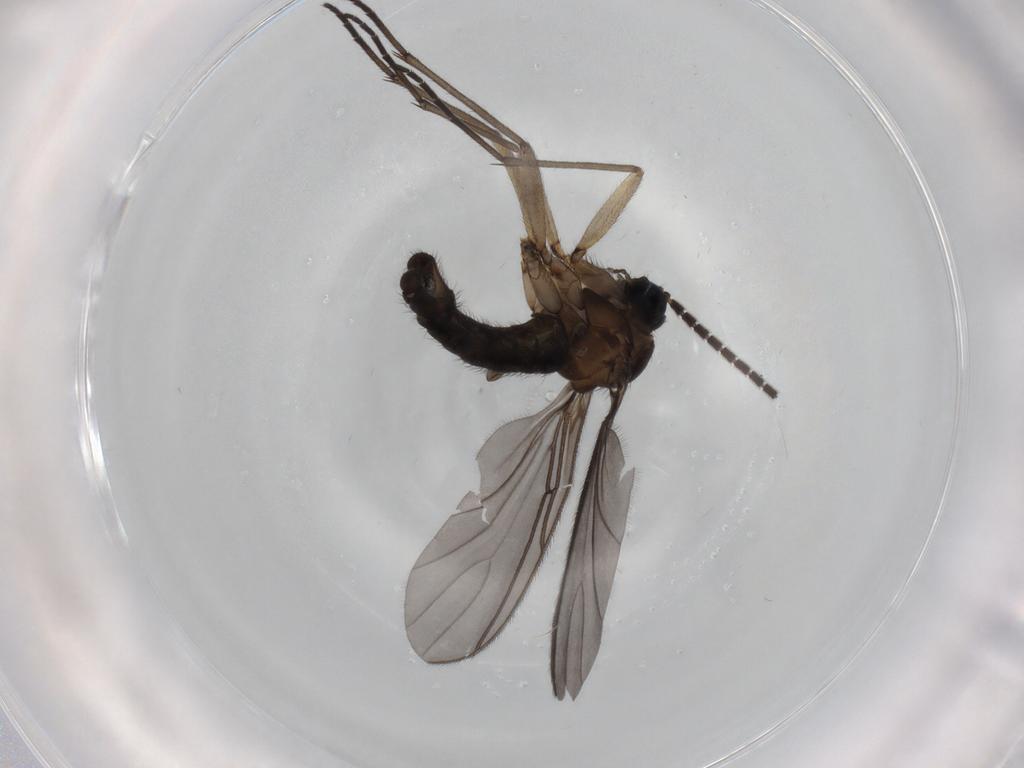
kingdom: Animalia
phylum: Arthropoda
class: Insecta
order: Diptera
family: Sciaridae
